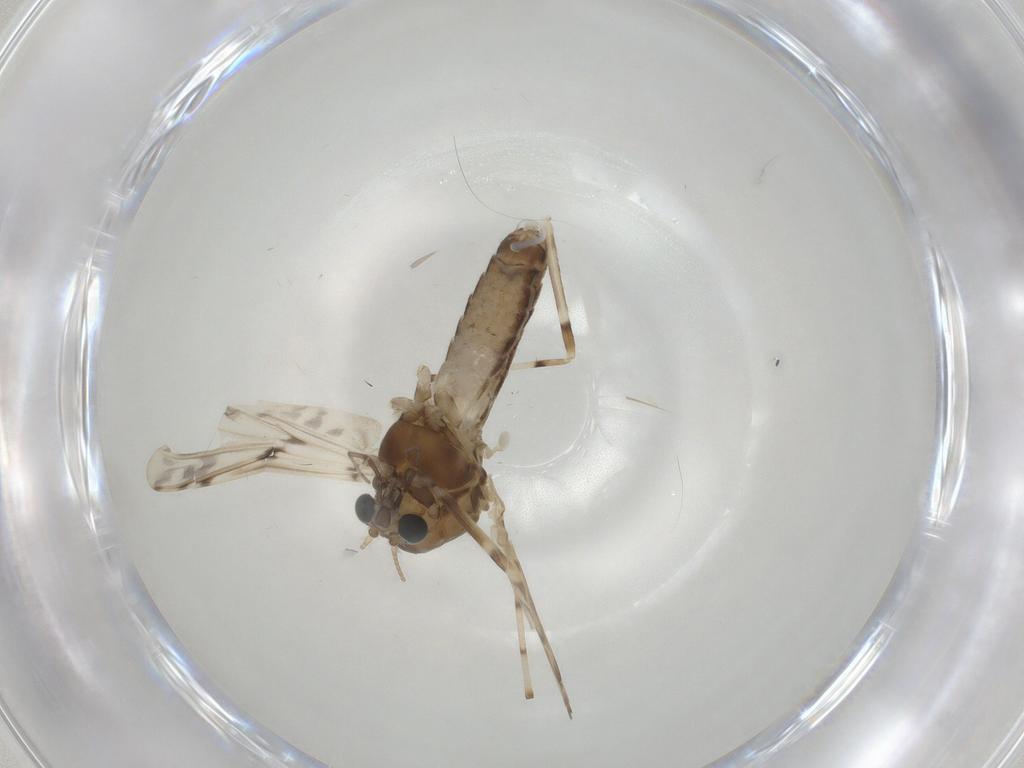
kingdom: Animalia
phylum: Arthropoda
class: Insecta
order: Diptera
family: Chironomidae
